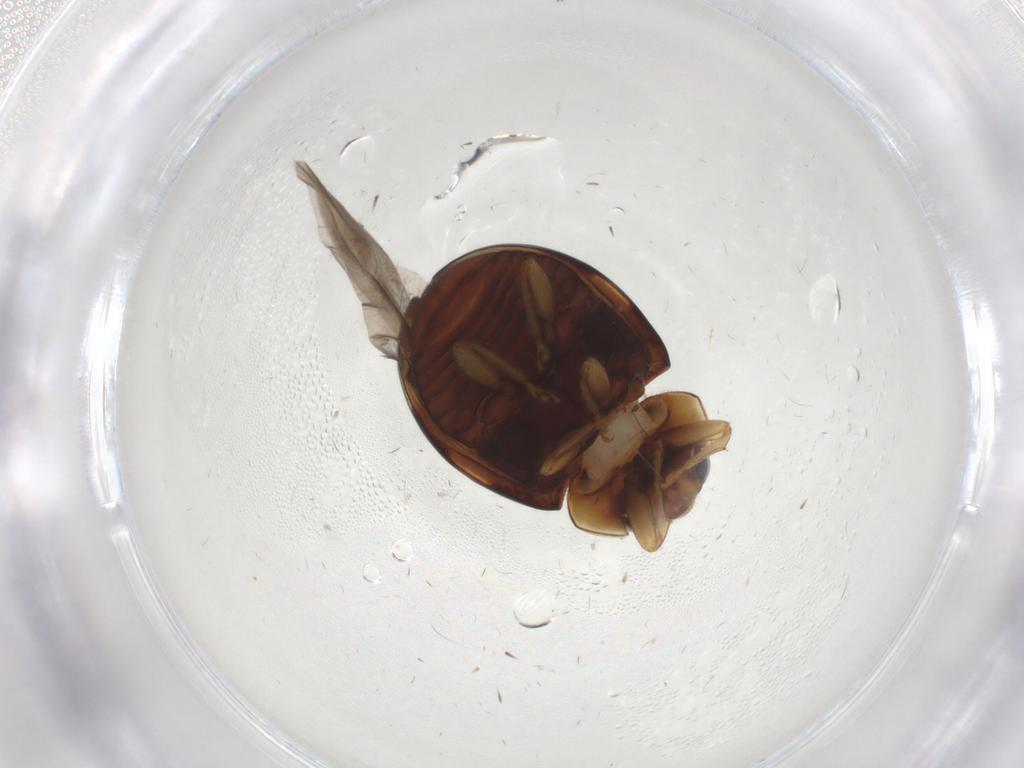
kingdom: Animalia
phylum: Arthropoda
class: Insecta
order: Coleoptera
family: Coccinellidae
